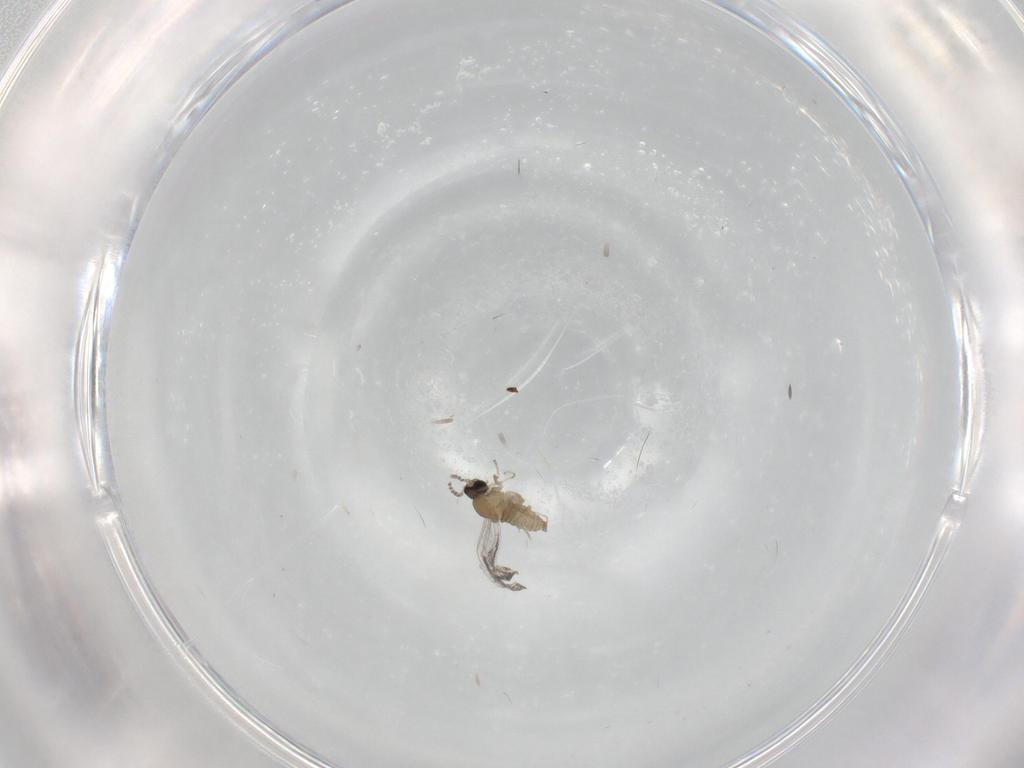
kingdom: Animalia
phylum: Arthropoda
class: Insecta
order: Diptera
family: Cecidomyiidae
